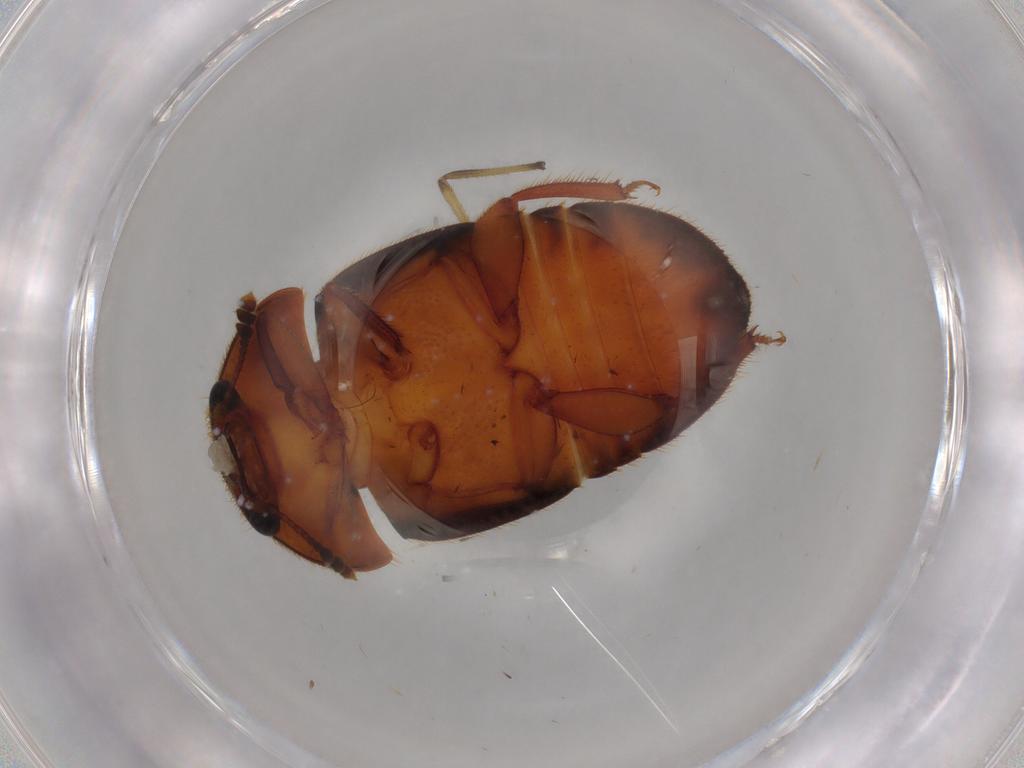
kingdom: Animalia
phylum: Arthropoda
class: Insecta
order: Coleoptera
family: Nitidulidae
